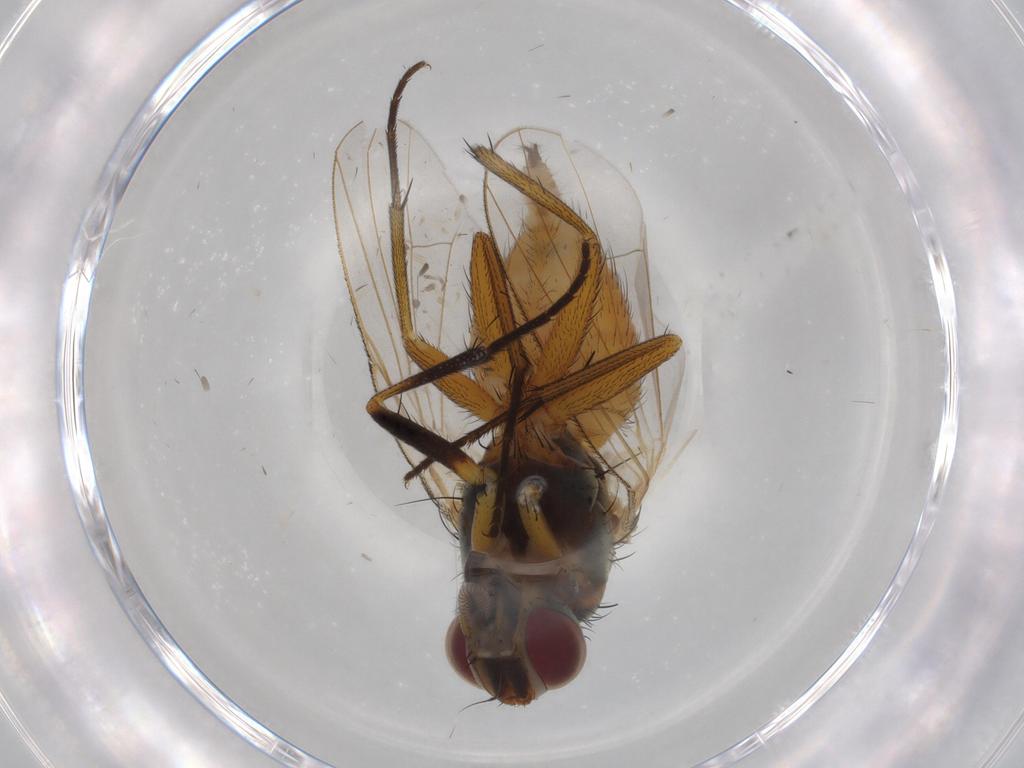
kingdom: Animalia
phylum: Arthropoda
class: Insecta
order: Diptera
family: Muscidae
